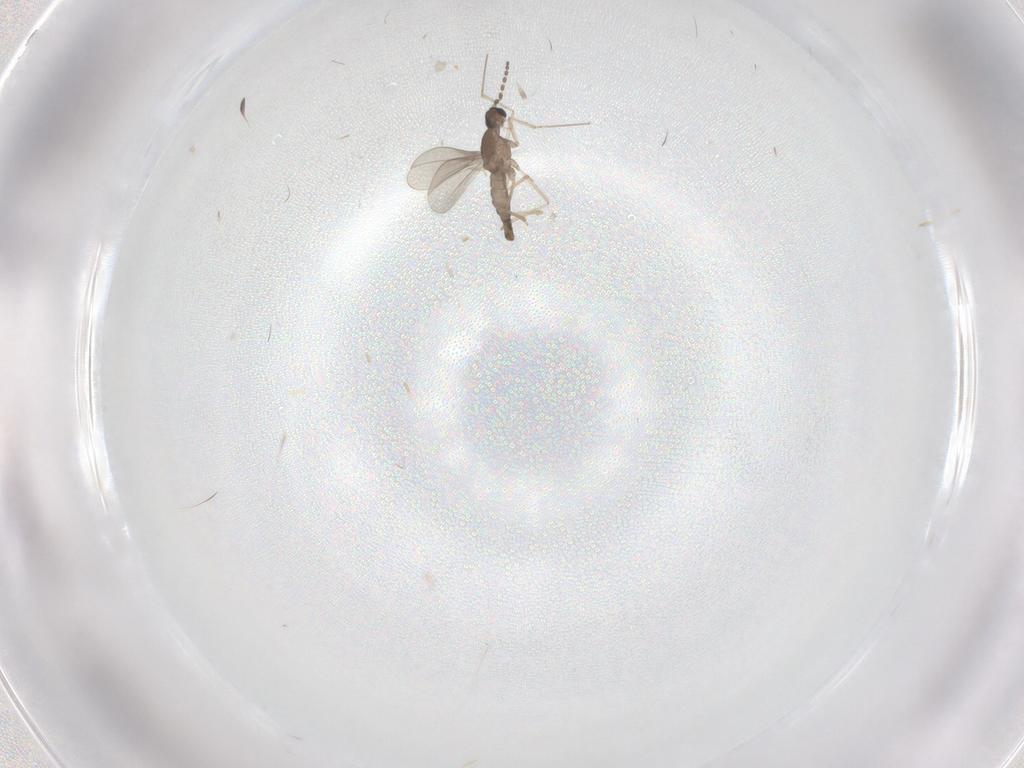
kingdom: Animalia
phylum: Arthropoda
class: Insecta
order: Diptera
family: Cecidomyiidae
